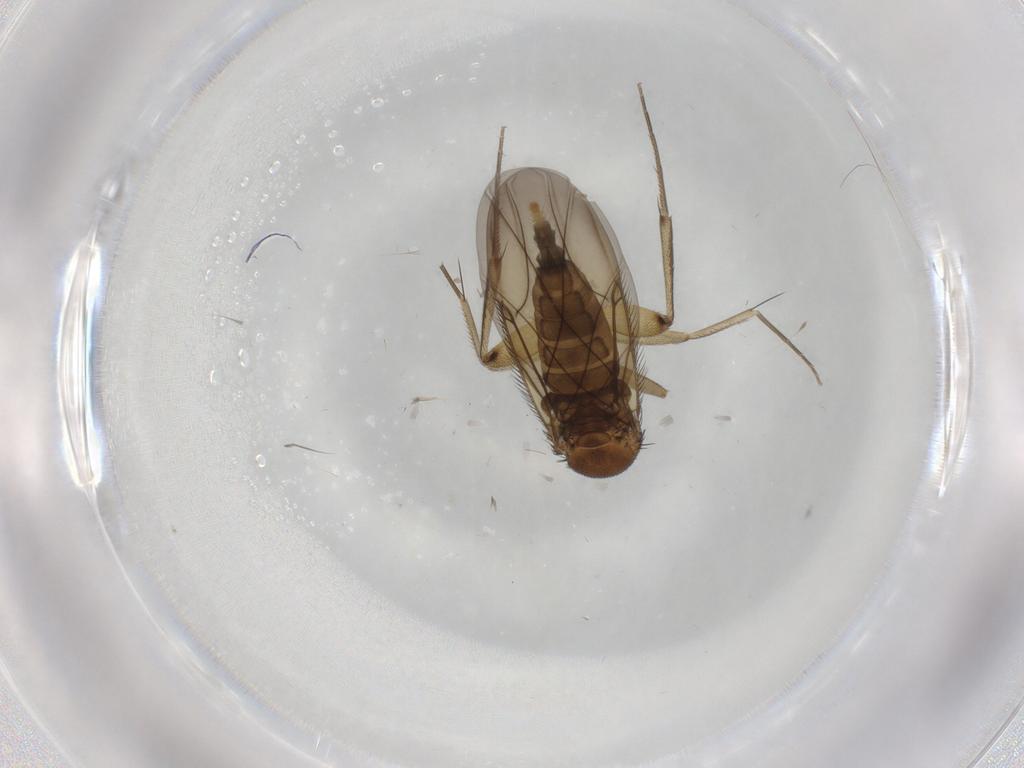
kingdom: Animalia
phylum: Arthropoda
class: Insecta
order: Diptera
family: Phoridae
